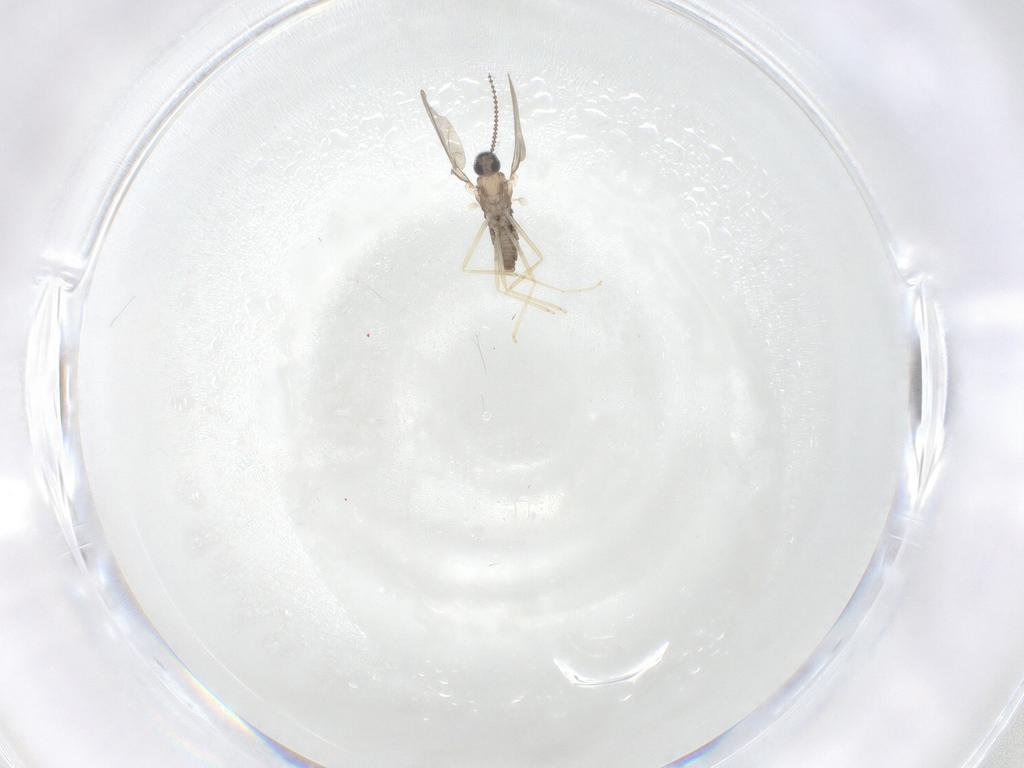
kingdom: Animalia
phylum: Arthropoda
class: Insecta
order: Diptera
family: Cecidomyiidae
